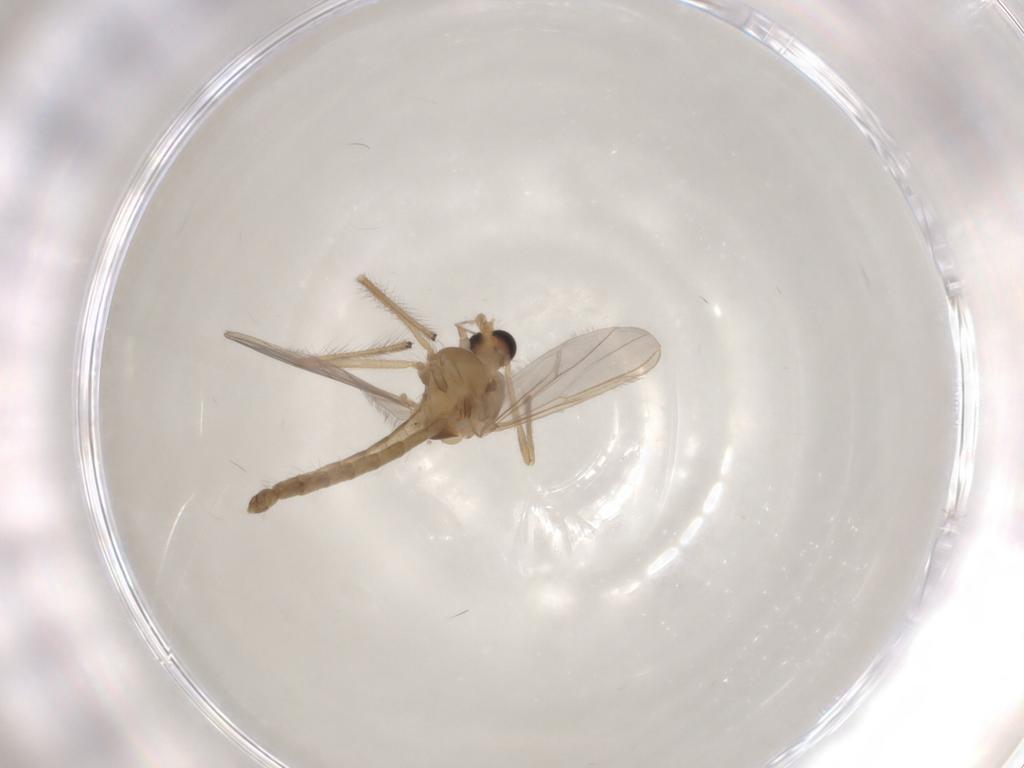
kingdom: Animalia
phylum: Arthropoda
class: Insecta
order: Diptera
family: Chironomidae
